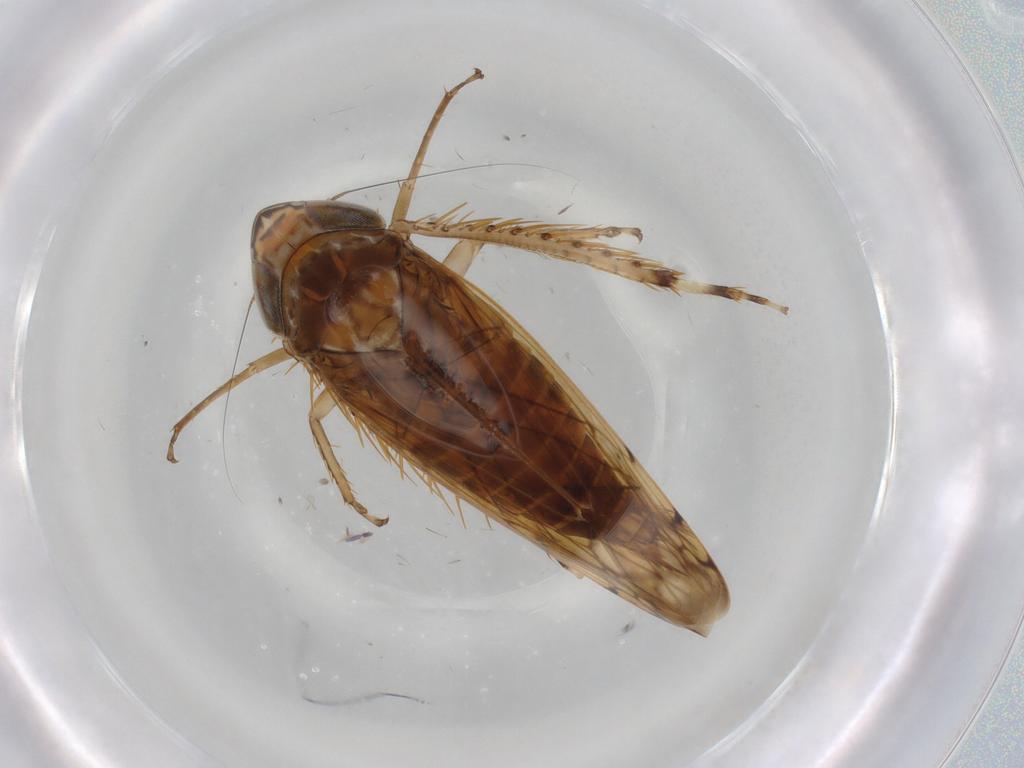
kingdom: Animalia
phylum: Arthropoda
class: Insecta
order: Hemiptera
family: Cicadellidae
